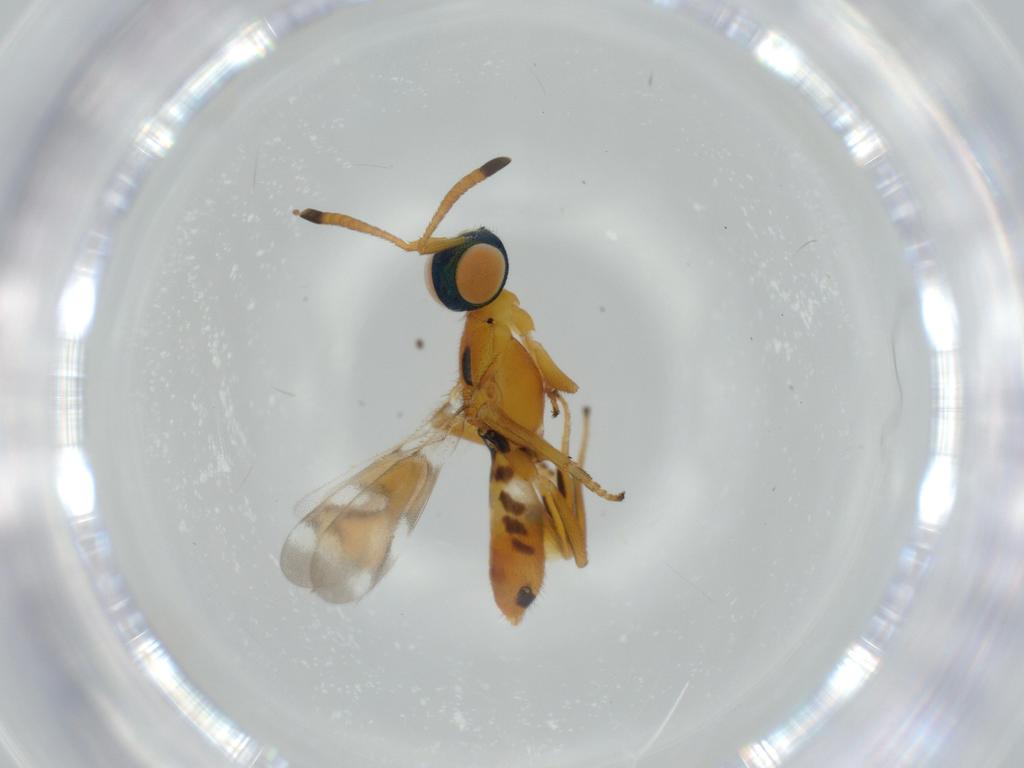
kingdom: Animalia
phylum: Arthropoda
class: Insecta
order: Hymenoptera
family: Eupelmidae
